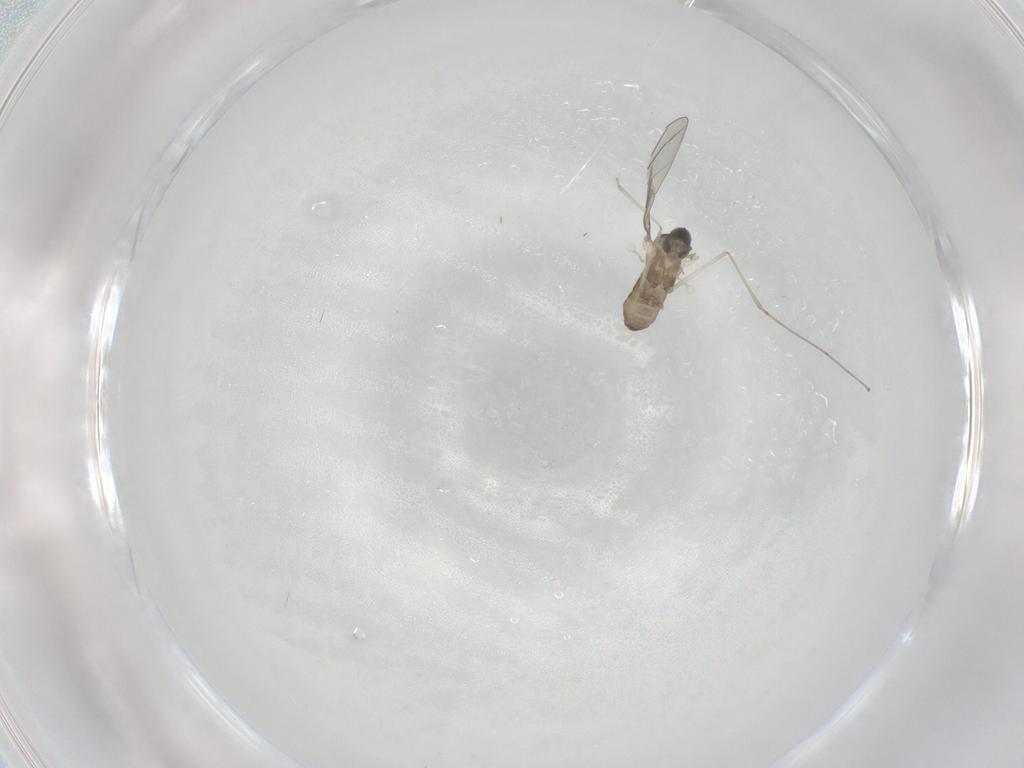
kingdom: Animalia
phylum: Arthropoda
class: Insecta
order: Diptera
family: Cecidomyiidae
